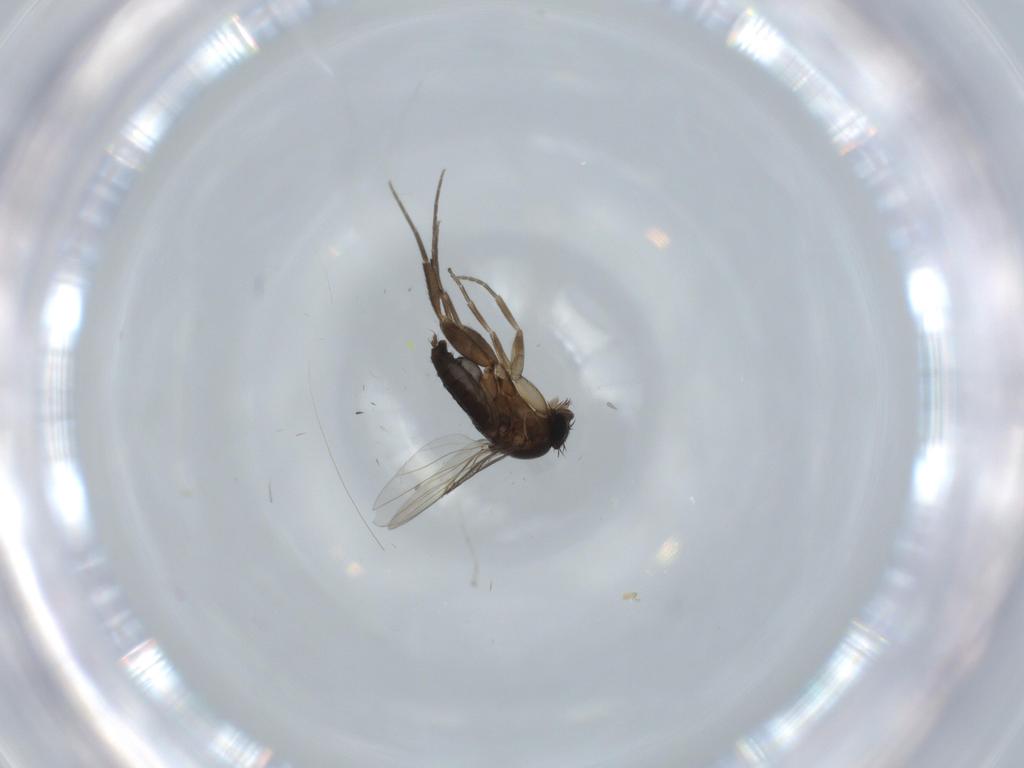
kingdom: Animalia
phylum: Arthropoda
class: Insecta
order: Diptera
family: Phoridae
